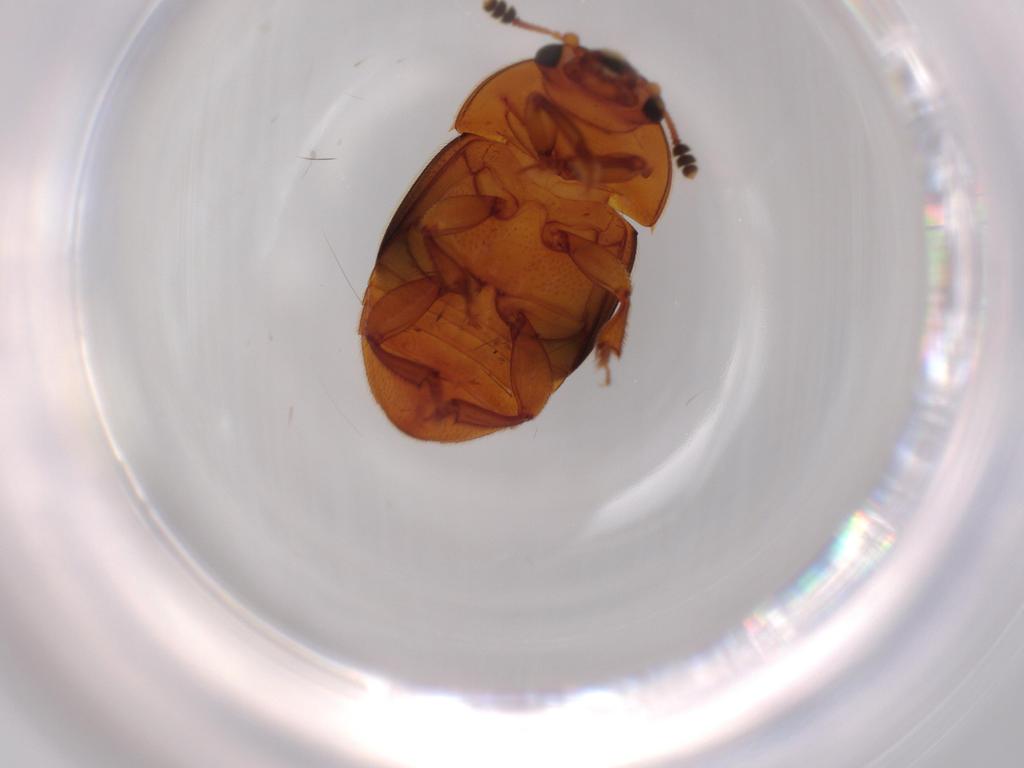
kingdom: Animalia
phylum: Arthropoda
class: Insecta
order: Coleoptera
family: Nitidulidae
